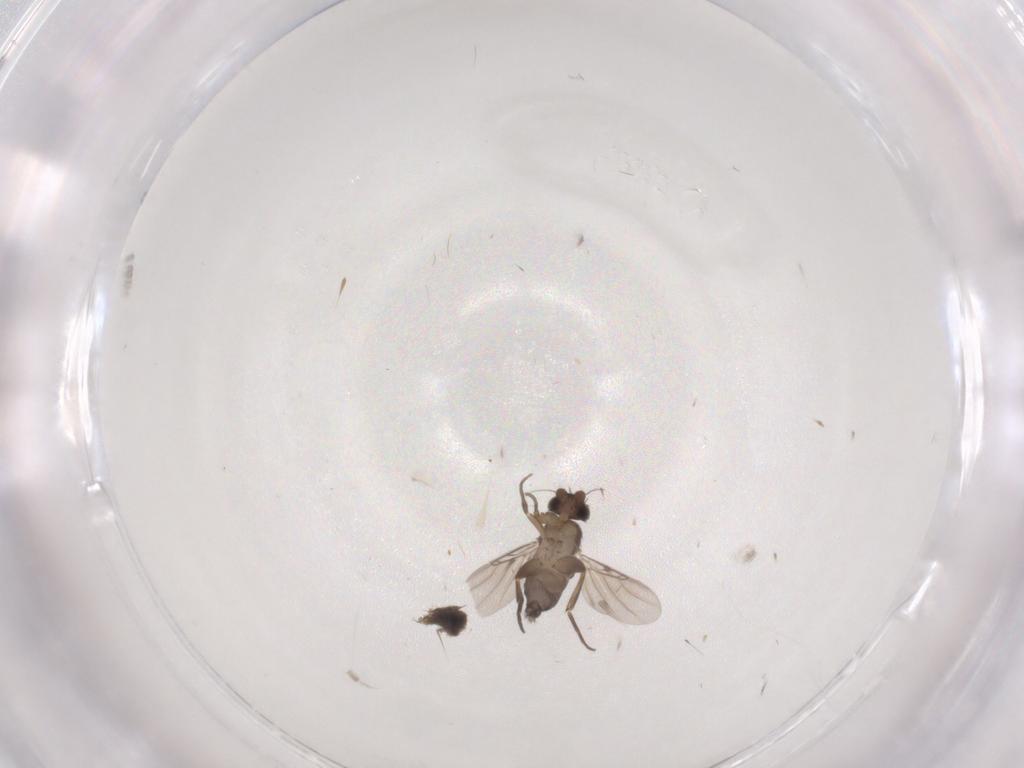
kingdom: Animalia
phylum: Arthropoda
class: Insecta
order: Diptera
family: Phoridae
